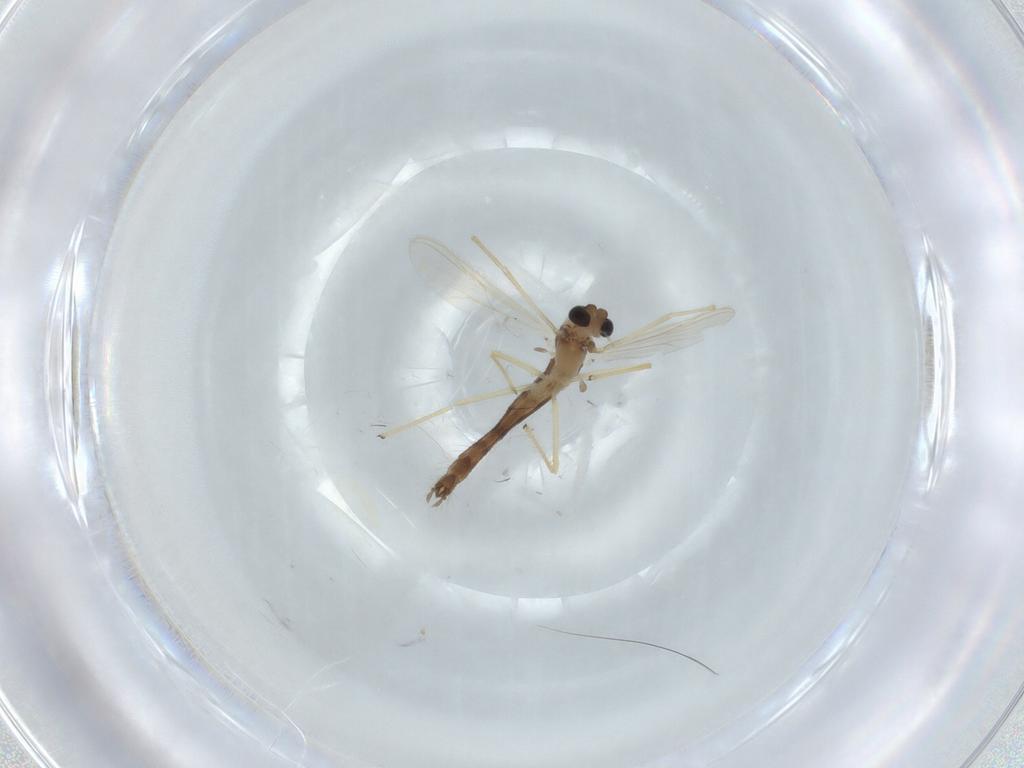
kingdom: Animalia
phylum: Arthropoda
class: Insecta
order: Diptera
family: Chironomidae
